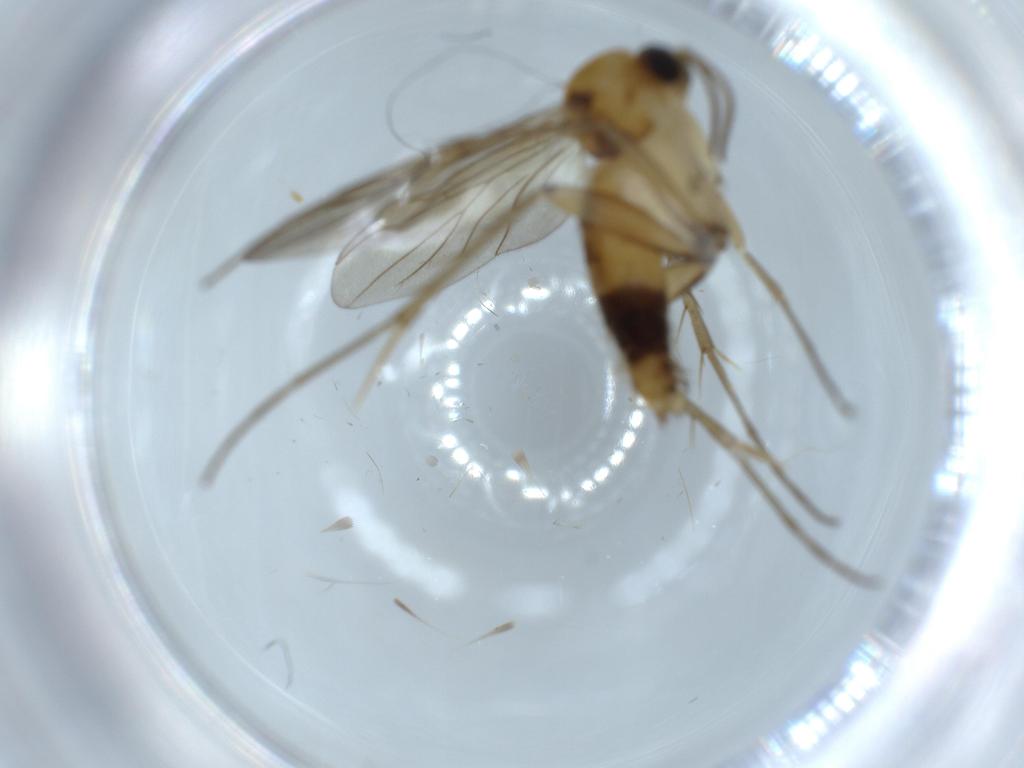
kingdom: Animalia
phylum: Arthropoda
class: Insecta
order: Diptera
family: Mycetophilidae
